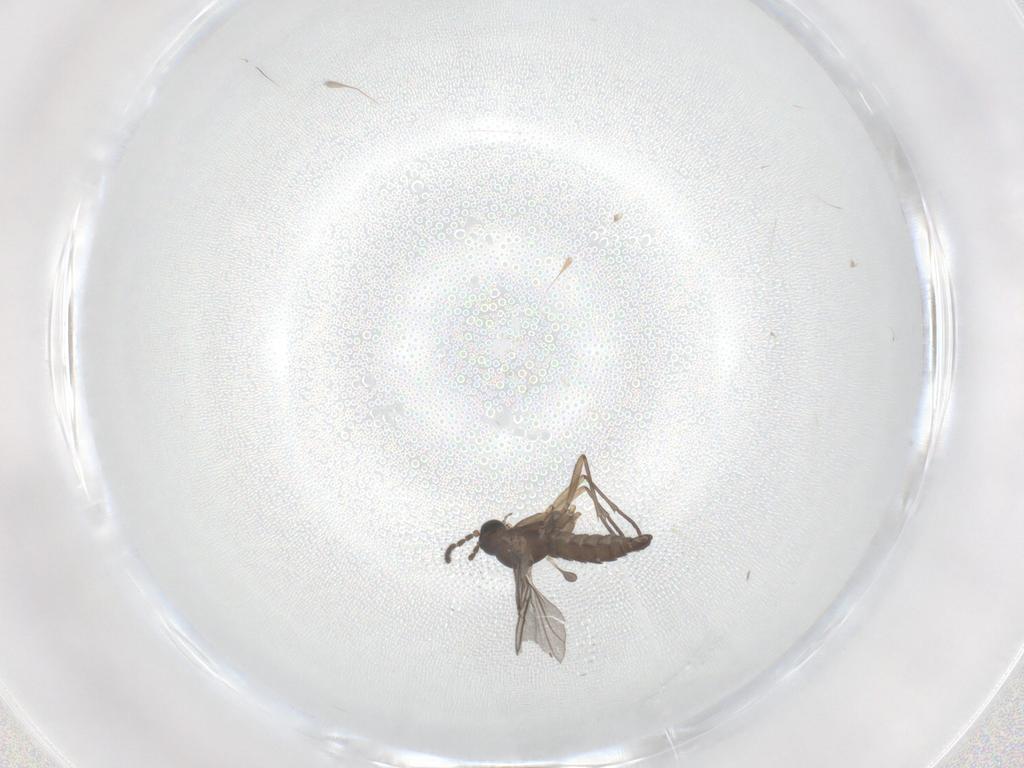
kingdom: Animalia
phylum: Arthropoda
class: Insecta
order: Diptera
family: Sciaridae
